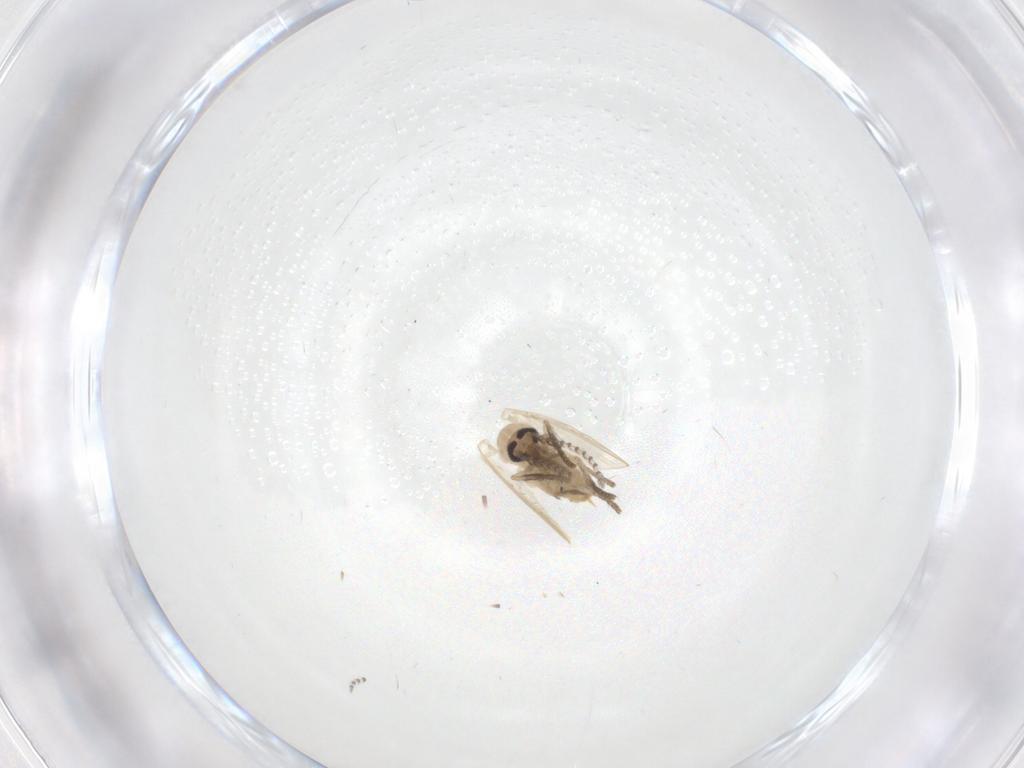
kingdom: Animalia
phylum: Arthropoda
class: Insecta
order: Diptera
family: Psychodidae
